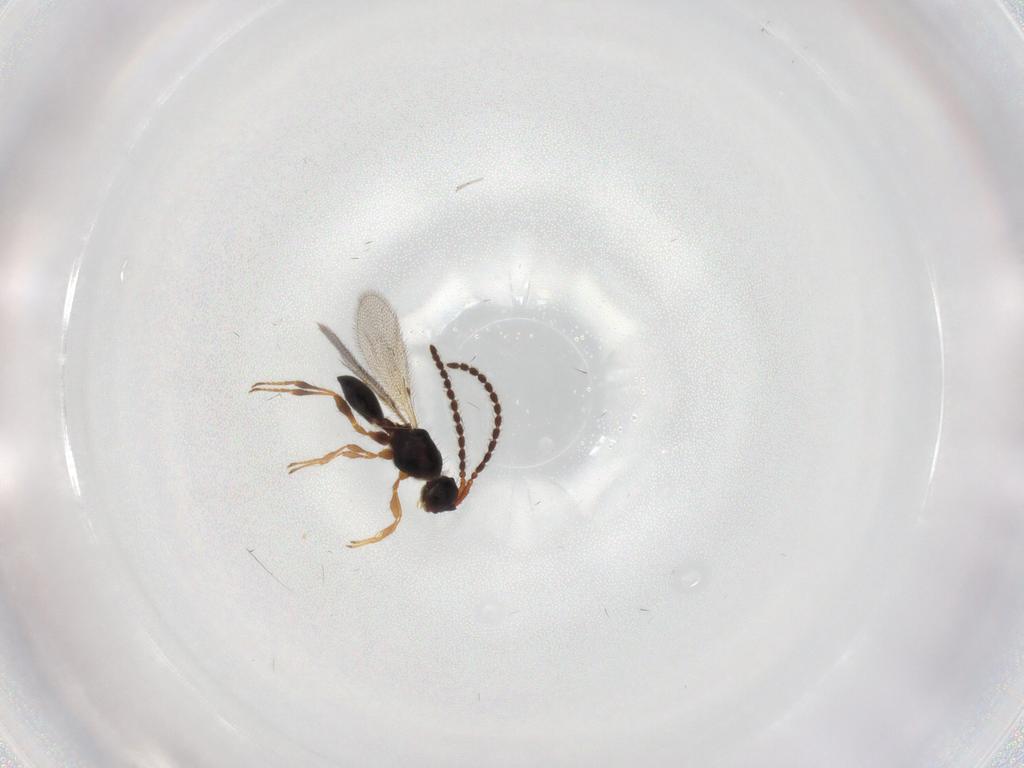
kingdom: Animalia
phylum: Arthropoda
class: Insecta
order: Hymenoptera
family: Diapriidae
